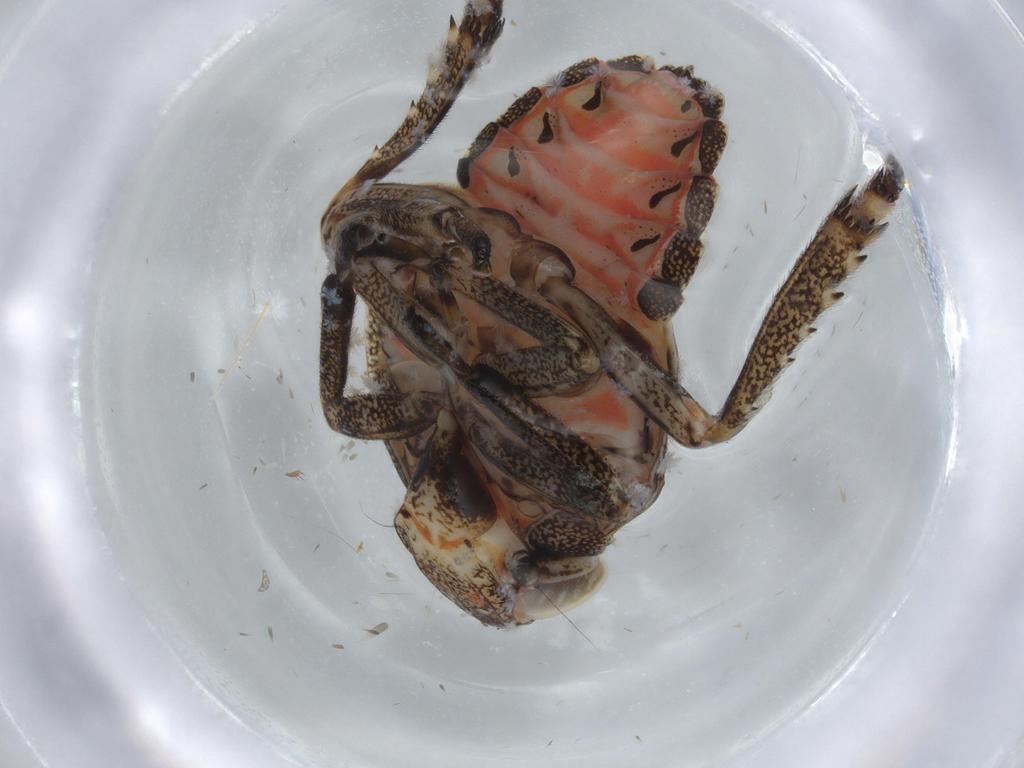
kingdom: Animalia
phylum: Arthropoda
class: Insecta
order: Hemiptera
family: Issidae
